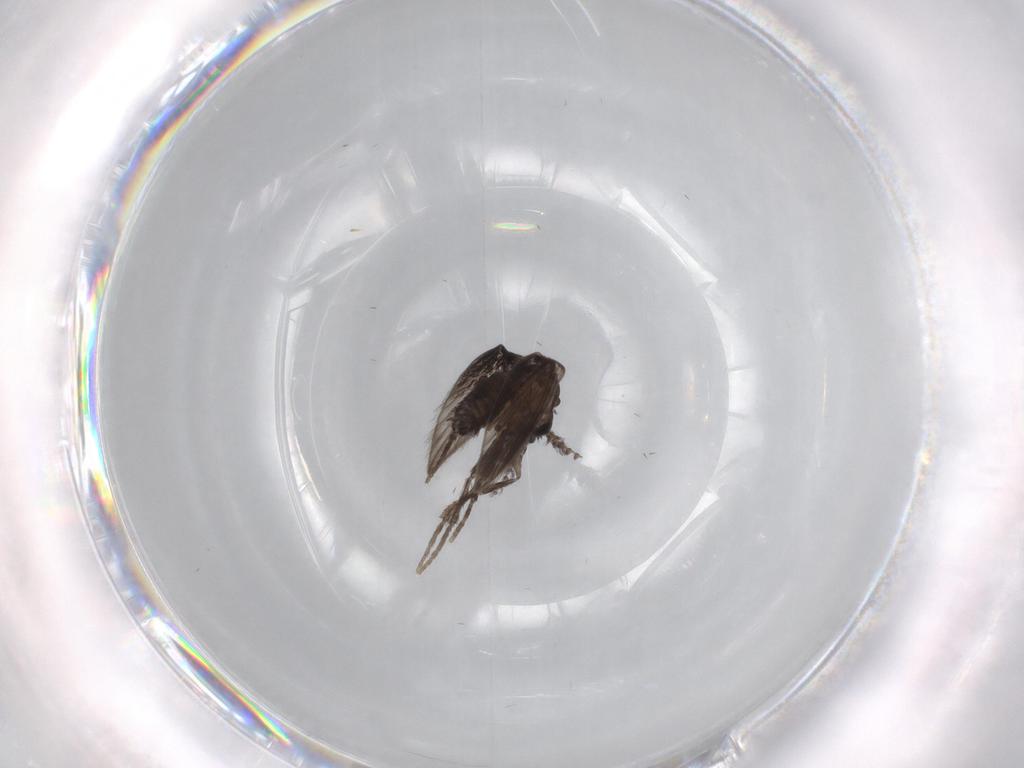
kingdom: Animalia
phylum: Arthropoda
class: Insecta
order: Diptera
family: Psychodidae
